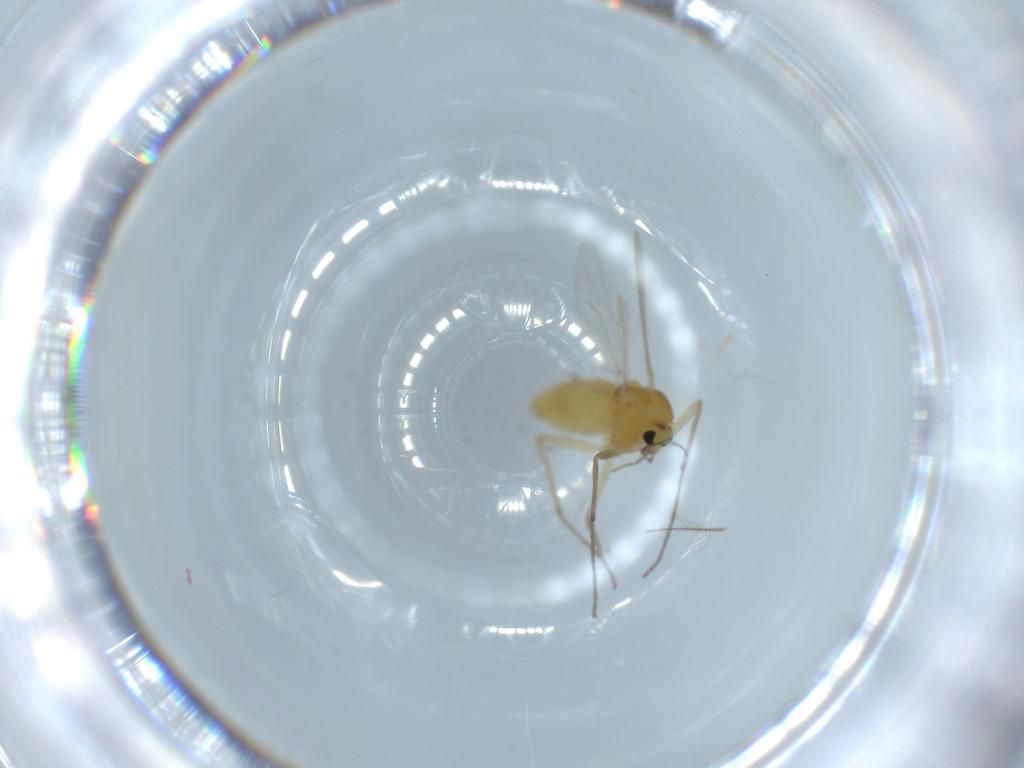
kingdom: Animalia
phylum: Arthropoda
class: Insecta
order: Diptera
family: Chironomidae
